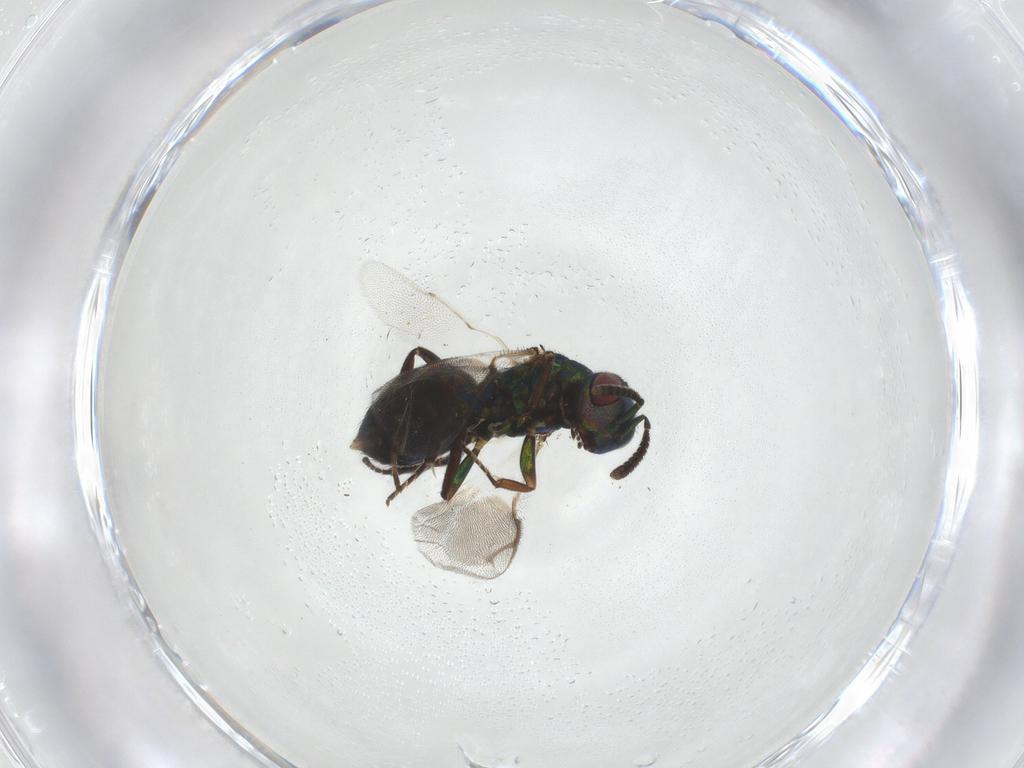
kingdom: Animalia
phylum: Arthropoda
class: Insecta
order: Hymenoptera
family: Pteromalidae
